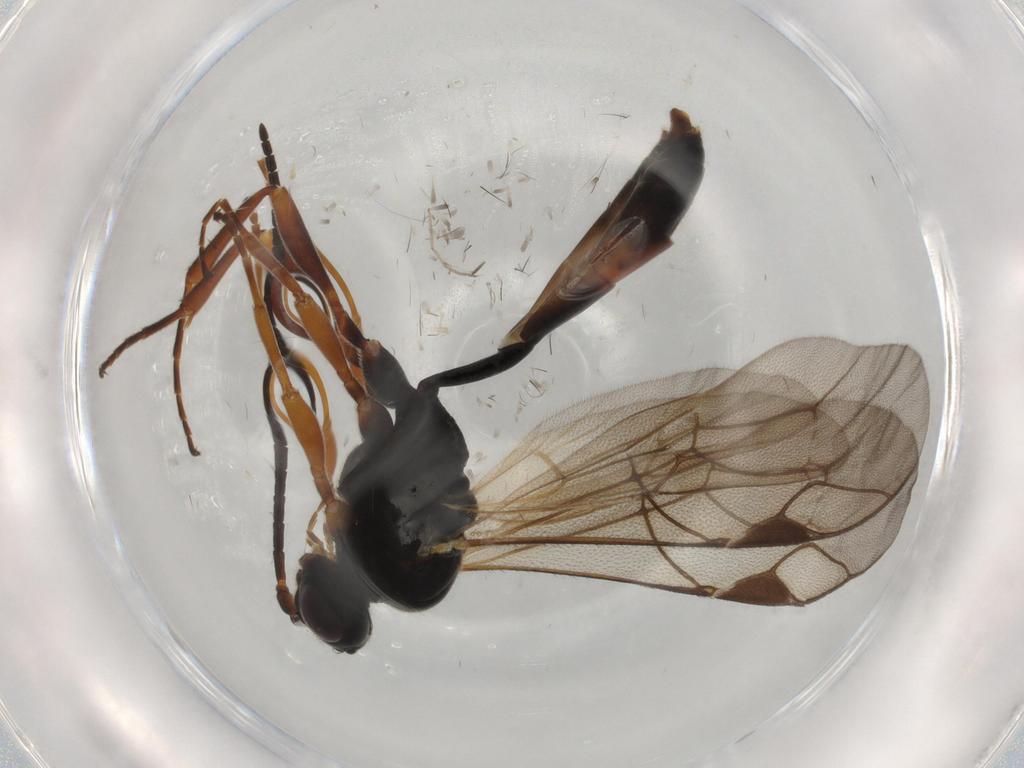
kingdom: Animalia
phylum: Arthropoda
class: Insecta
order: Hymenoptera
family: Ichneumonidae
